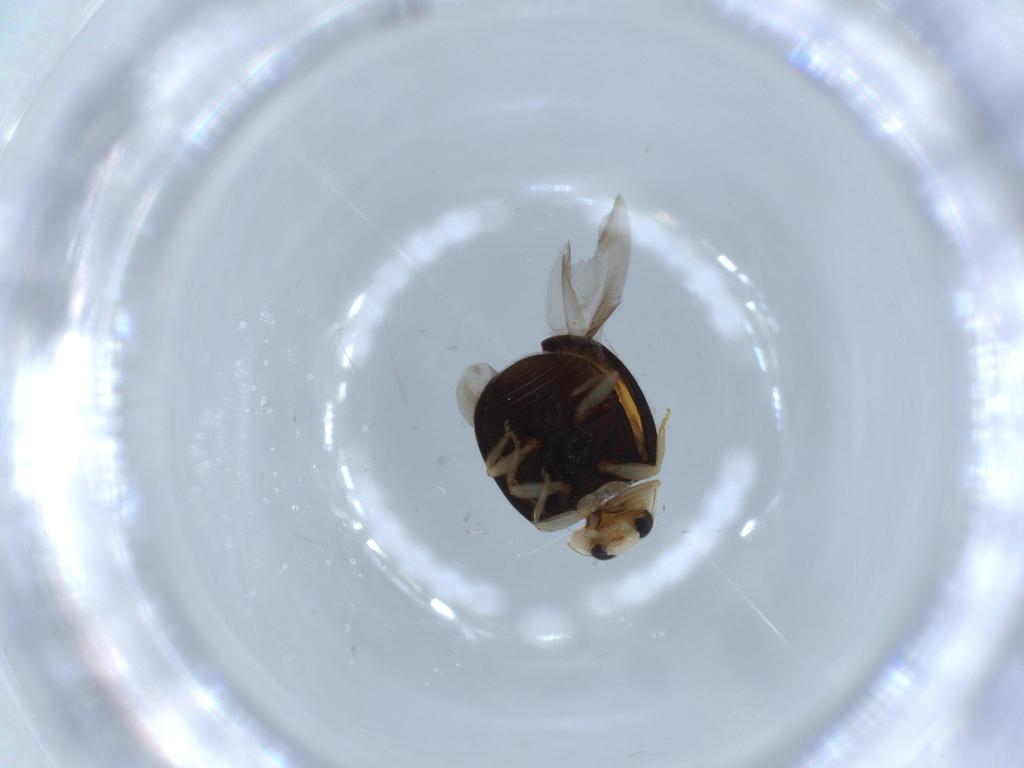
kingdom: Animalia
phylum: Arthropoda
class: Insecta
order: Coleoptera
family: Coccinellidae
